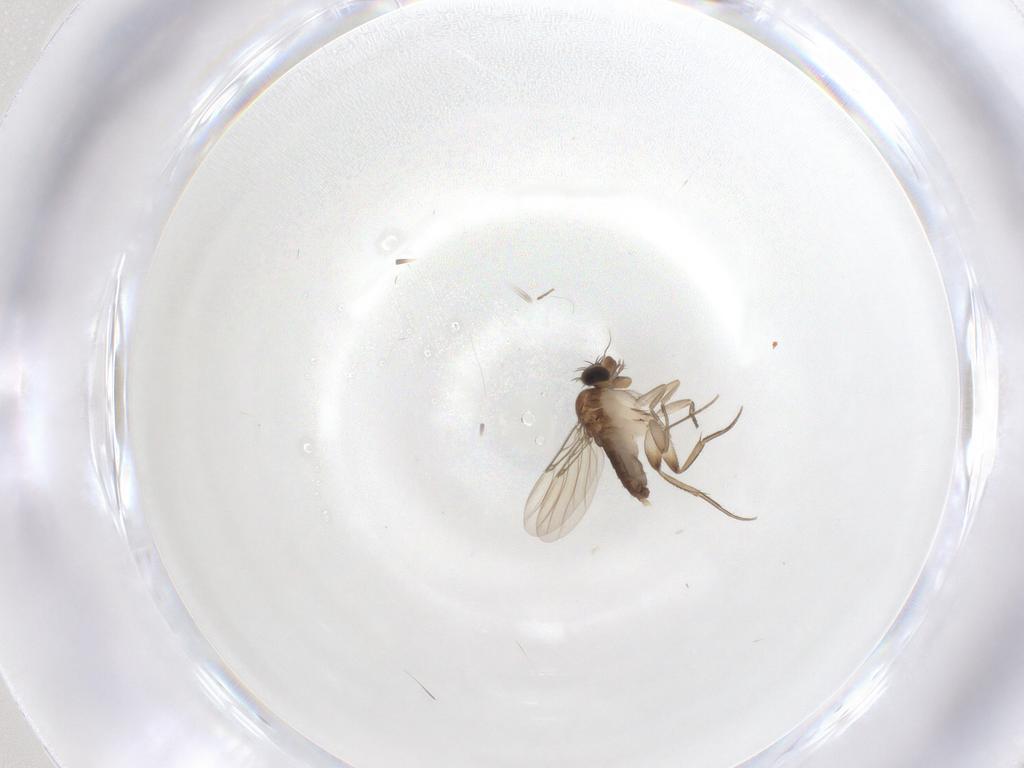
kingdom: Animalia
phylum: Arthropoda
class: Insecta
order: Diptera
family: Phoridae
